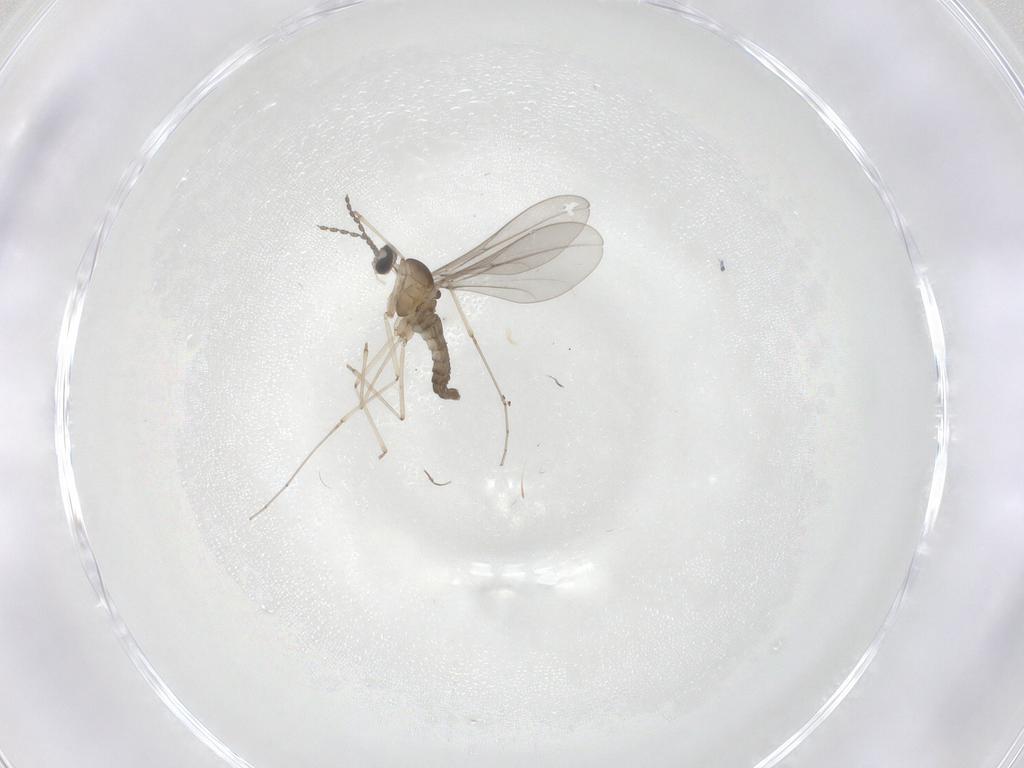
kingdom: Animalia
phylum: Arthropoda
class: Insecta
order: Diptera
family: Cecidomyiidae
